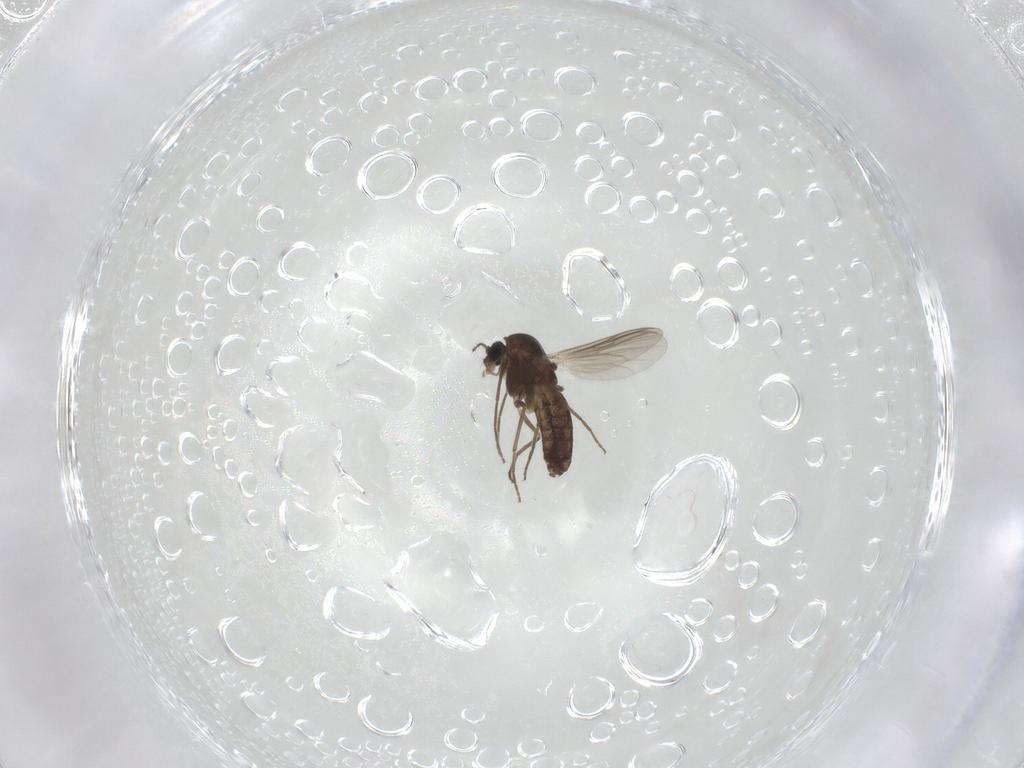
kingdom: Animalia
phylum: Arthropoda
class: Insecta
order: Diptera
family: Chironomidae
